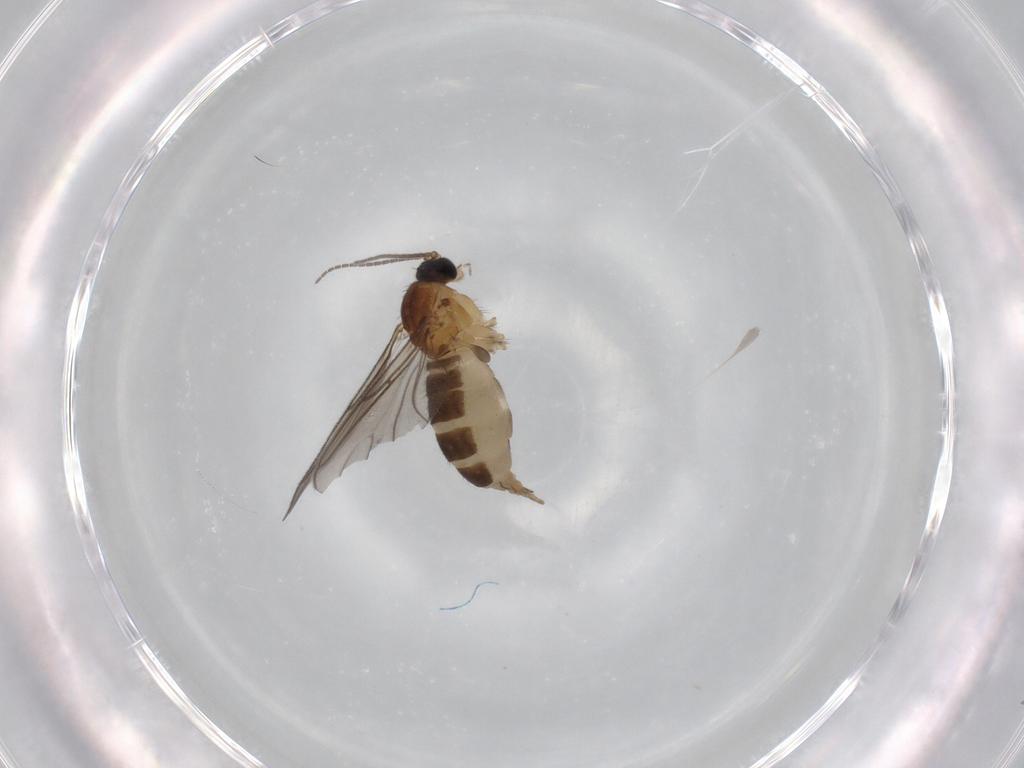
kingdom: Animalia
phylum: Arthropoda
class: Insecta
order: Diptera
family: Sciaridae
